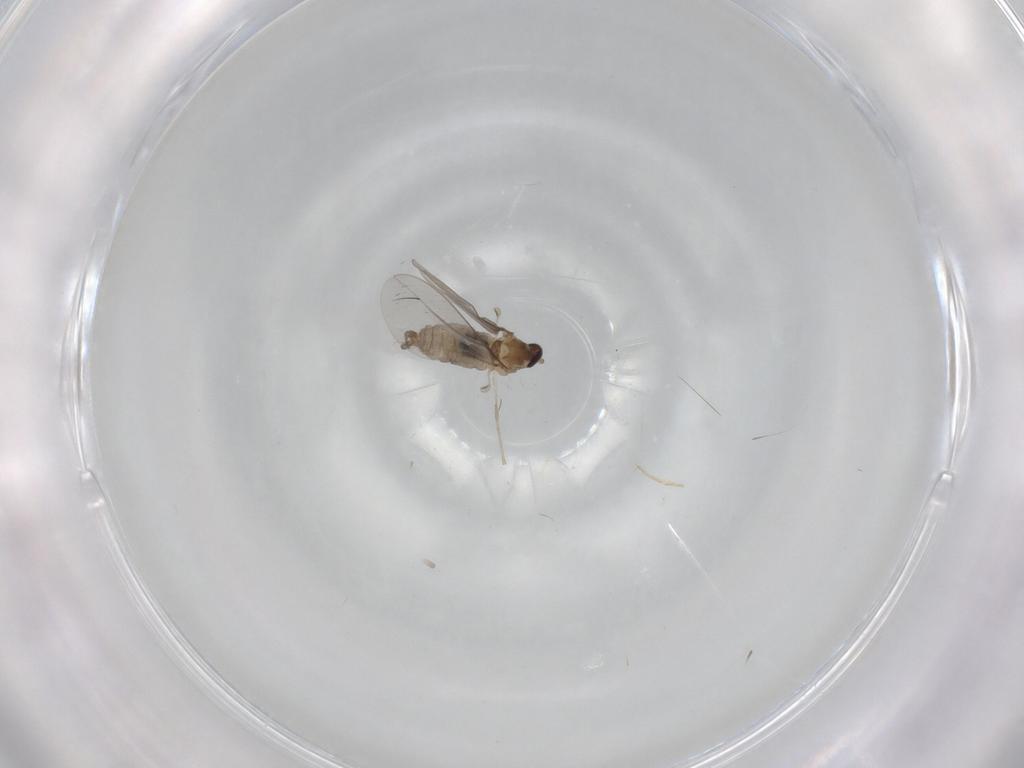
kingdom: Animalia
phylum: Arthropoda
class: Insecta
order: Diptera
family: Cecidomyiidae
